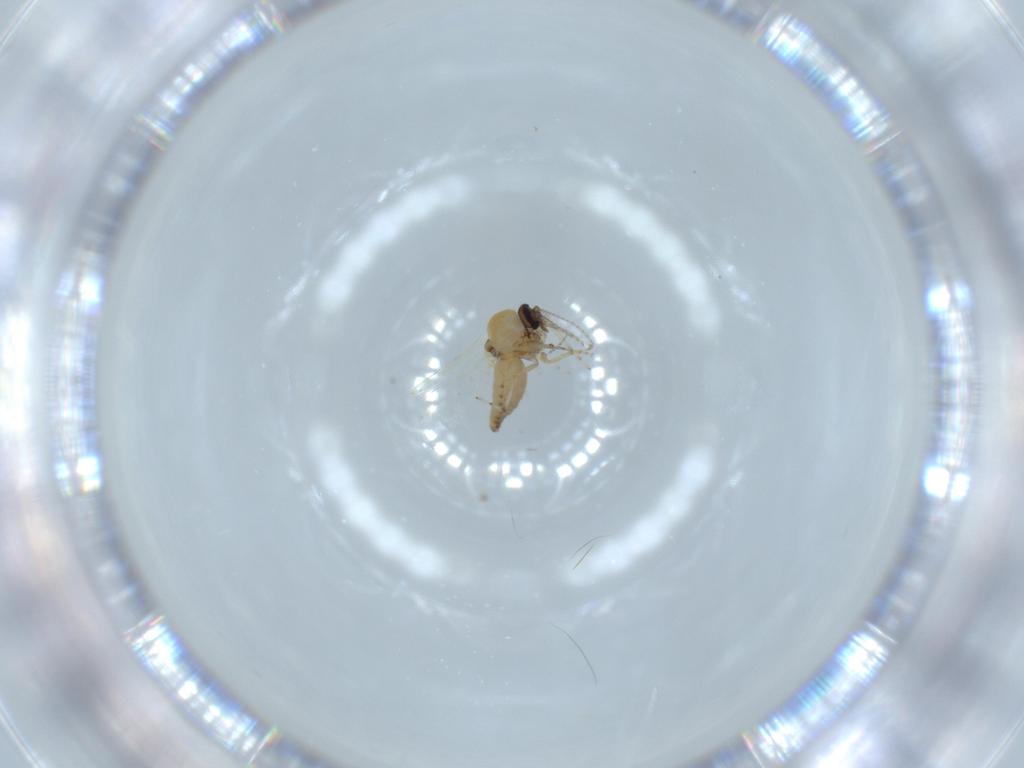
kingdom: Animalia
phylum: Arthropoda
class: Insecta
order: Diptera
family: Ceratopogonidae
